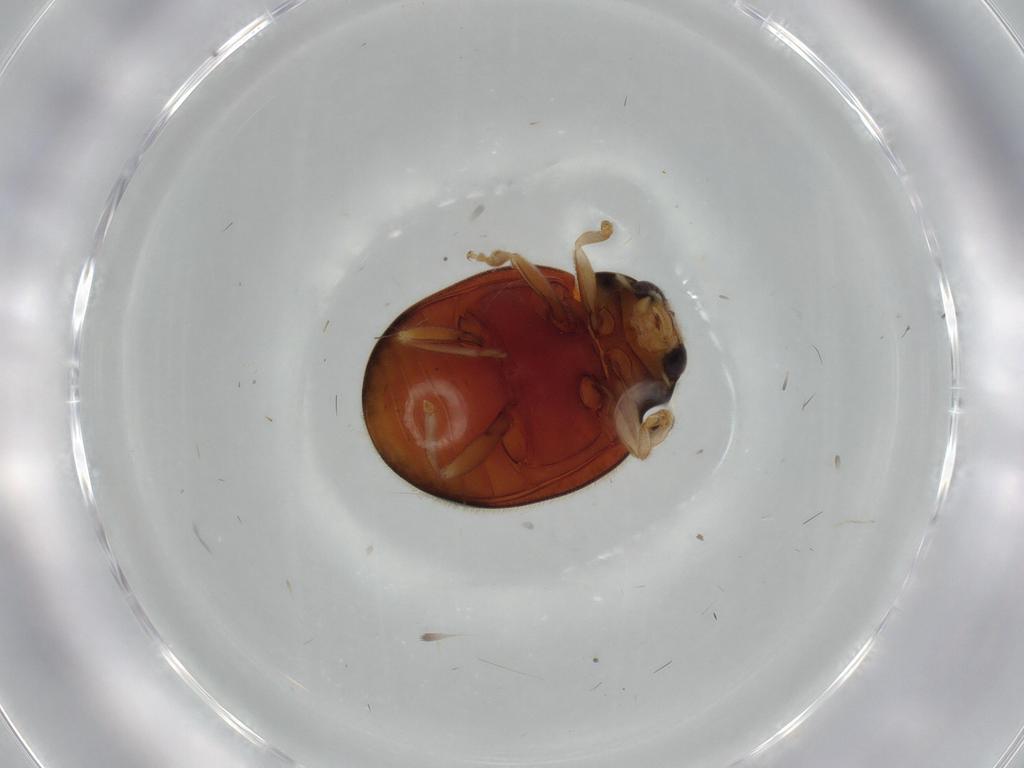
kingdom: Animalia
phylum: Arthropoda
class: Insecta
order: Coleoptera
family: Coccinellidae
